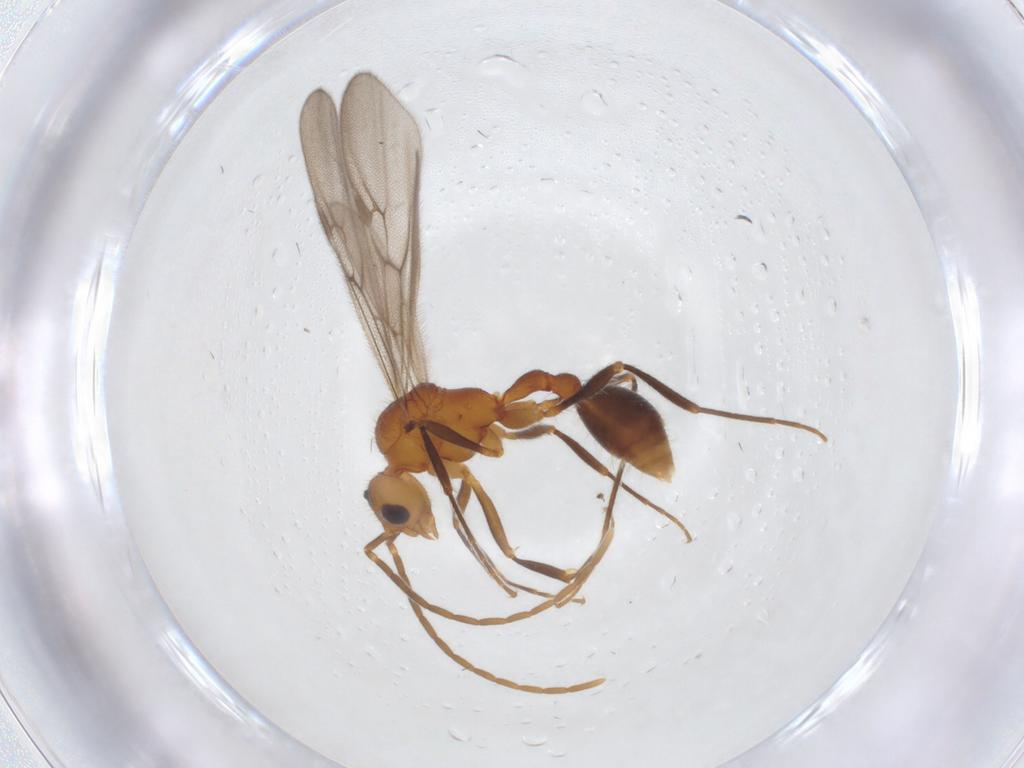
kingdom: Animalia
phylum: Arthropoda
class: Insecta
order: Hymenoptera
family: Formicidae
